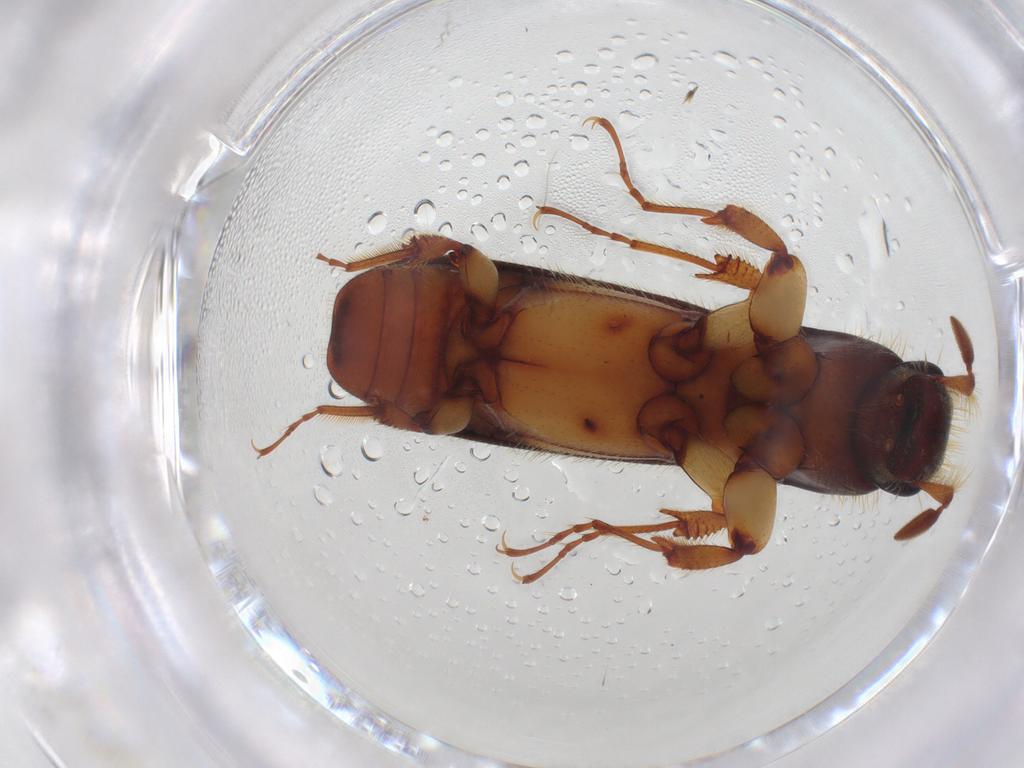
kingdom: Animalia
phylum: Arthropoda
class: Insecta
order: Coleoptera
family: Curculionidae
